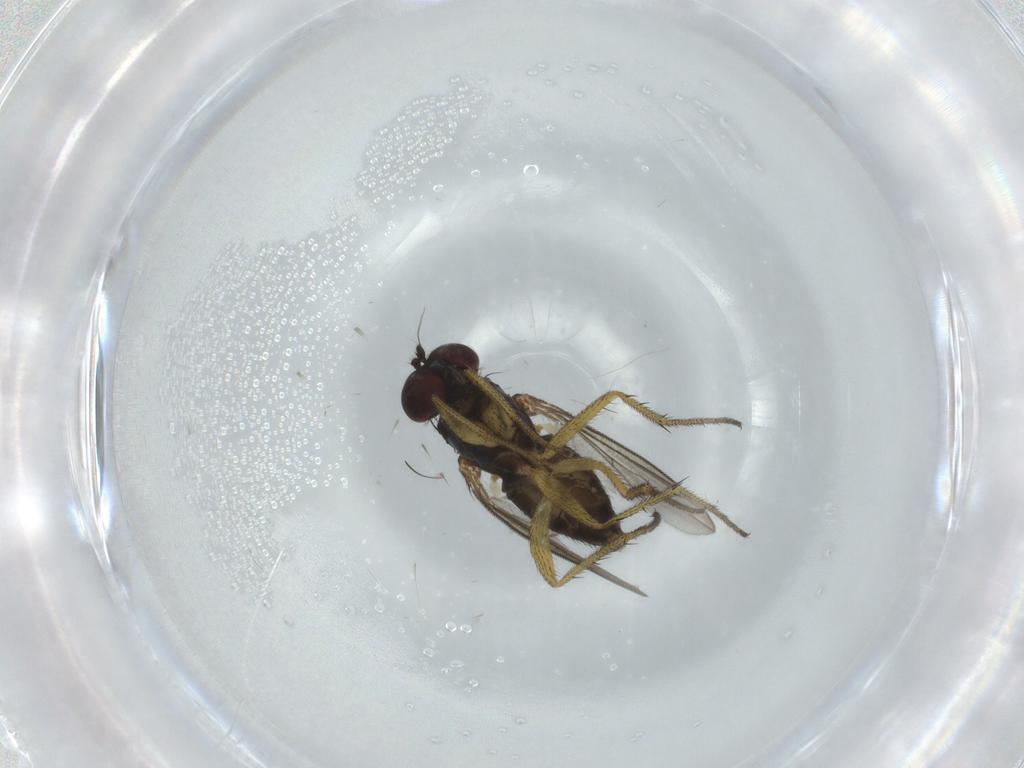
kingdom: Animalia
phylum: Arthropoda
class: Insecta
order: Diptera
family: Dolichopodidae
